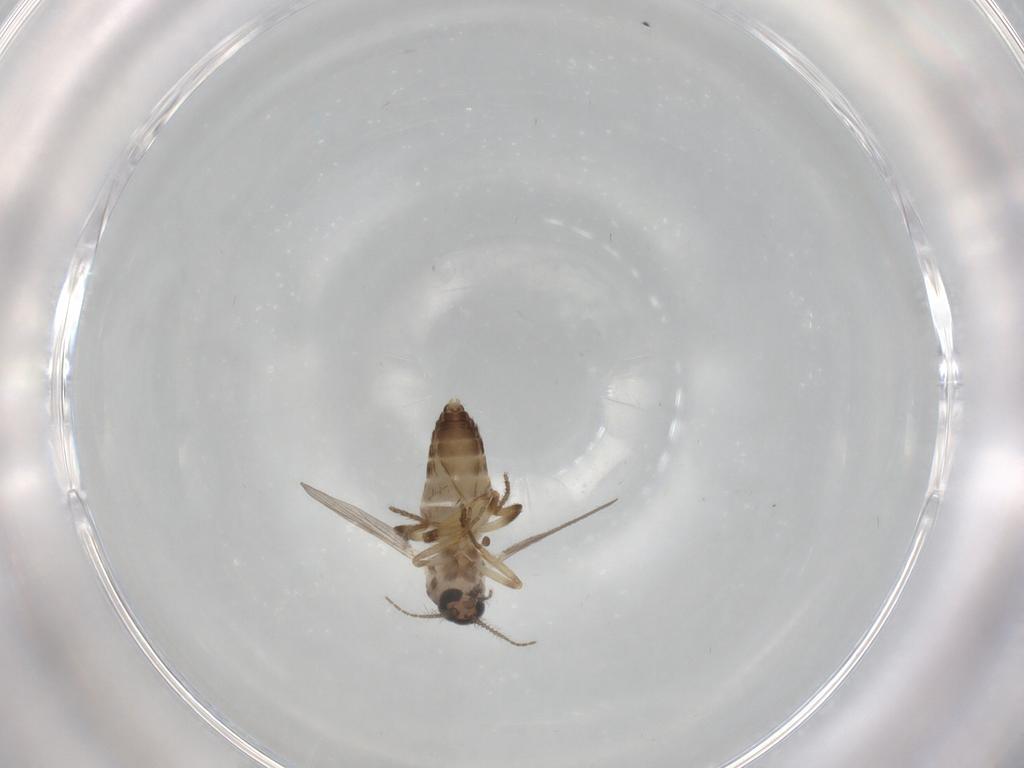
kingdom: Animalia
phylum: Arthropoda
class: Insecta
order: Diptera
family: Ceratopogonidae
